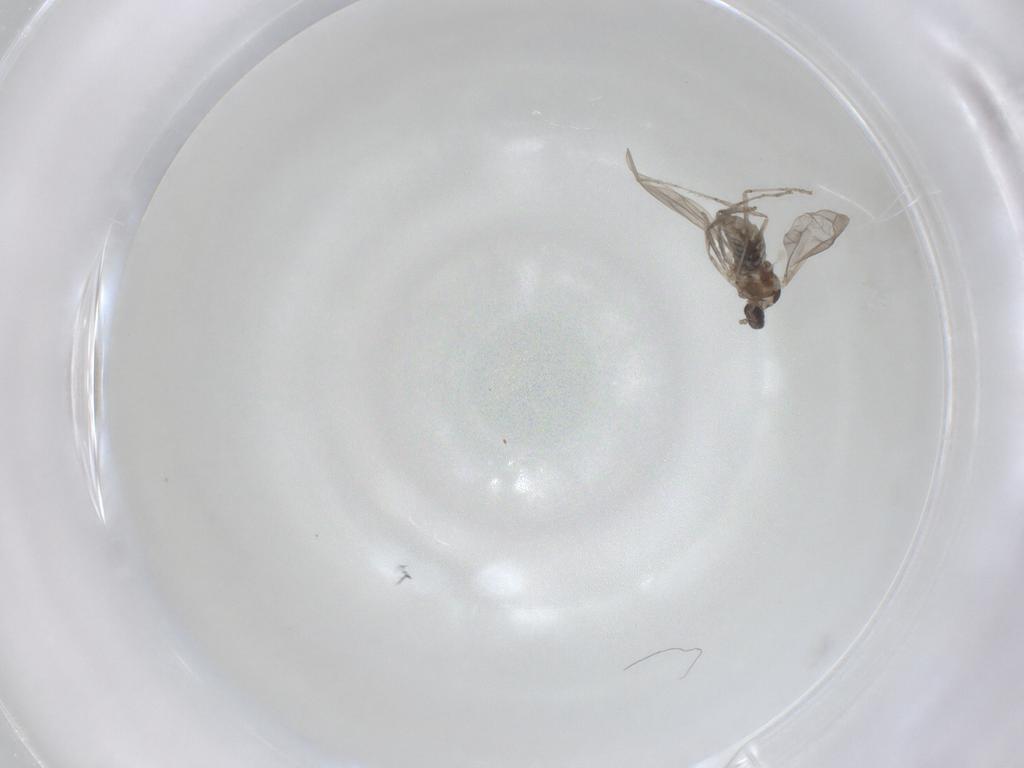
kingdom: Animalia
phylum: Arthropoda
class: Insecta
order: Diptera
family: Cecidomyiidae
